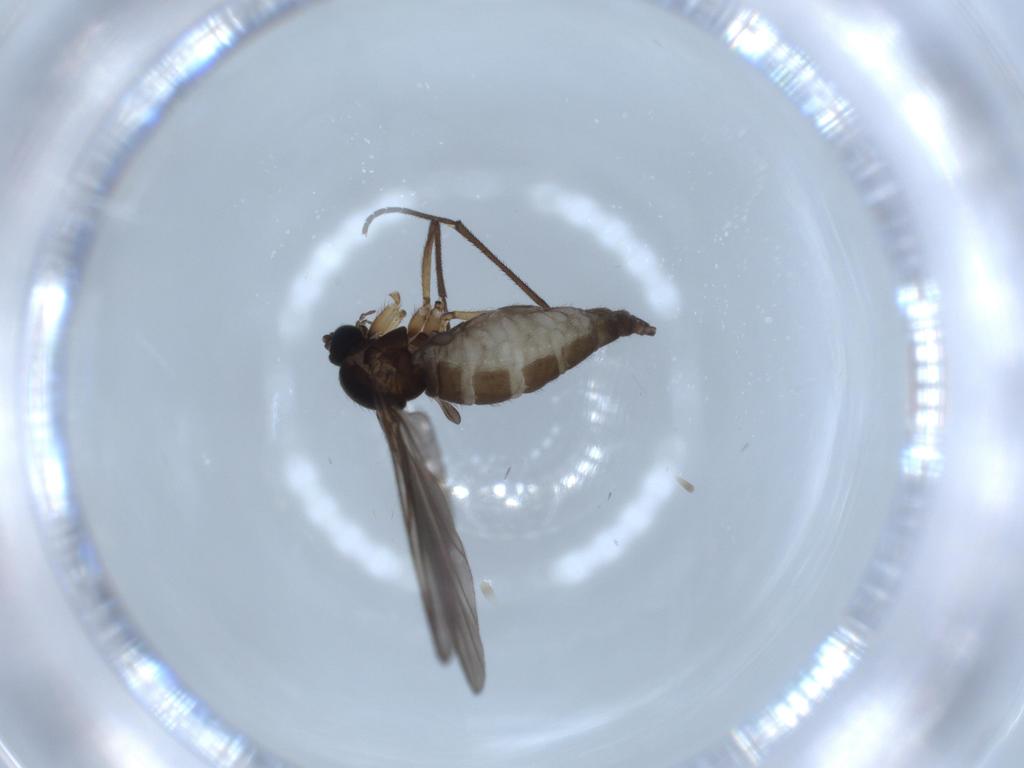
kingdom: Animalia
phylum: Arthropoda
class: Insecta
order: Diptera
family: Sciaridae
